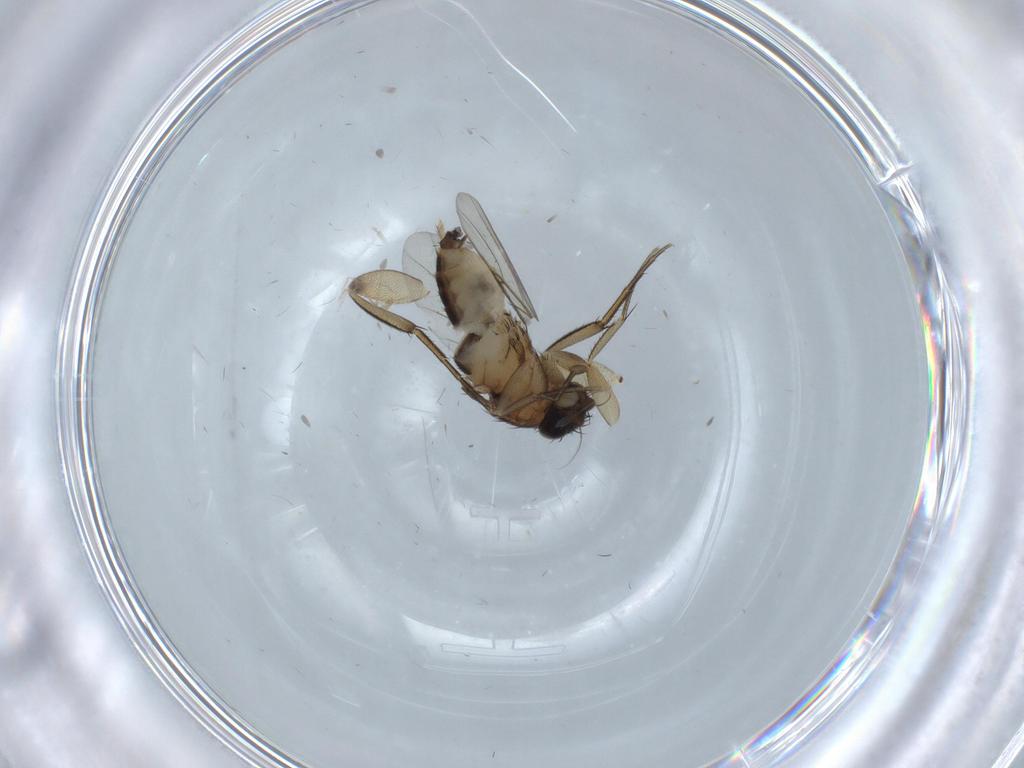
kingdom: Animalia
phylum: Arthropoda
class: Insecta
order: Diptera
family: Phoridae
